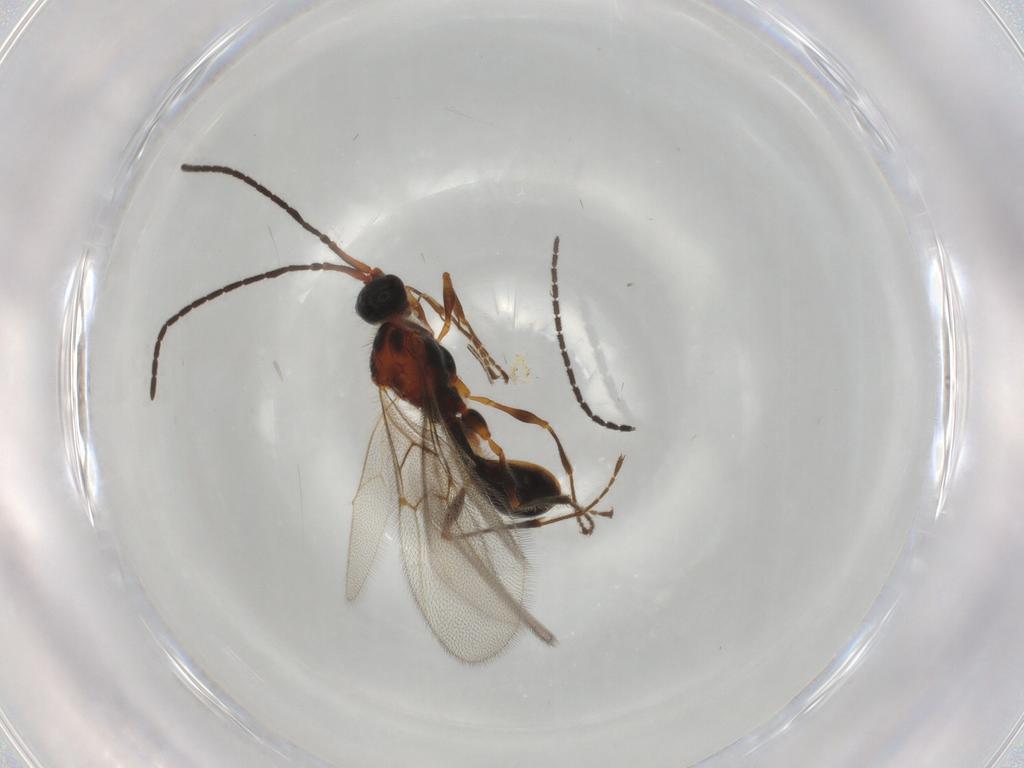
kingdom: Animalia
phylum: Arthropoda
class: Insecta
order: Hymenoptera
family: Diapriidae
